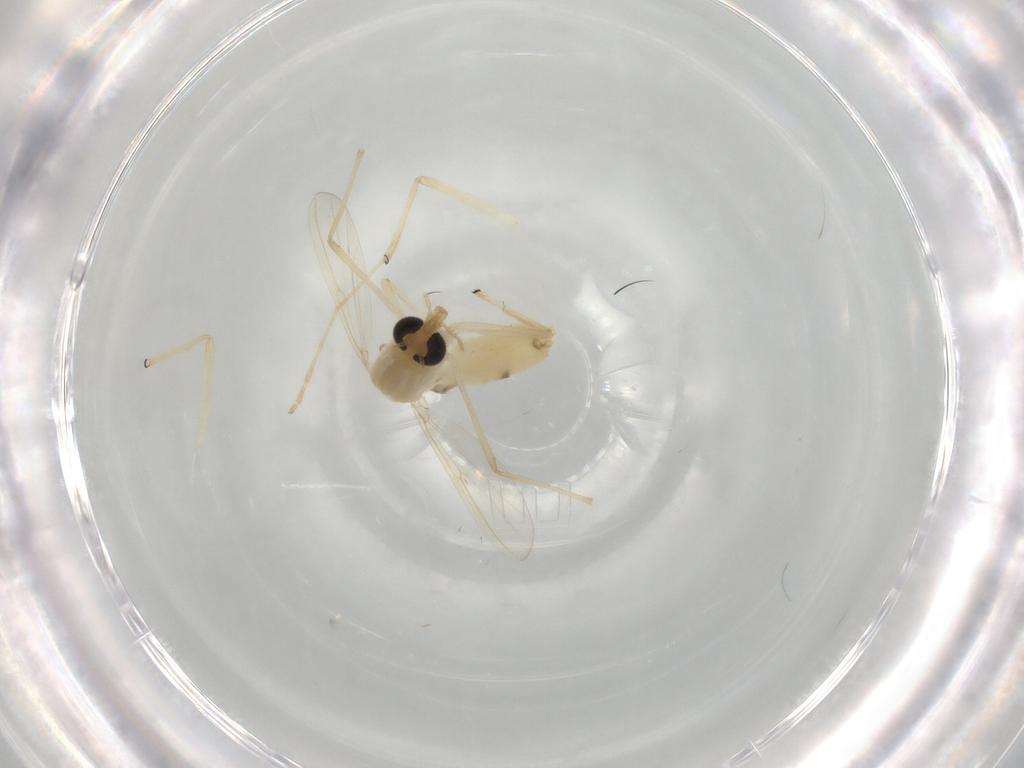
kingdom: Animalia
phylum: Arthropoda
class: Insecta
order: Diptera
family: Chironomidae
